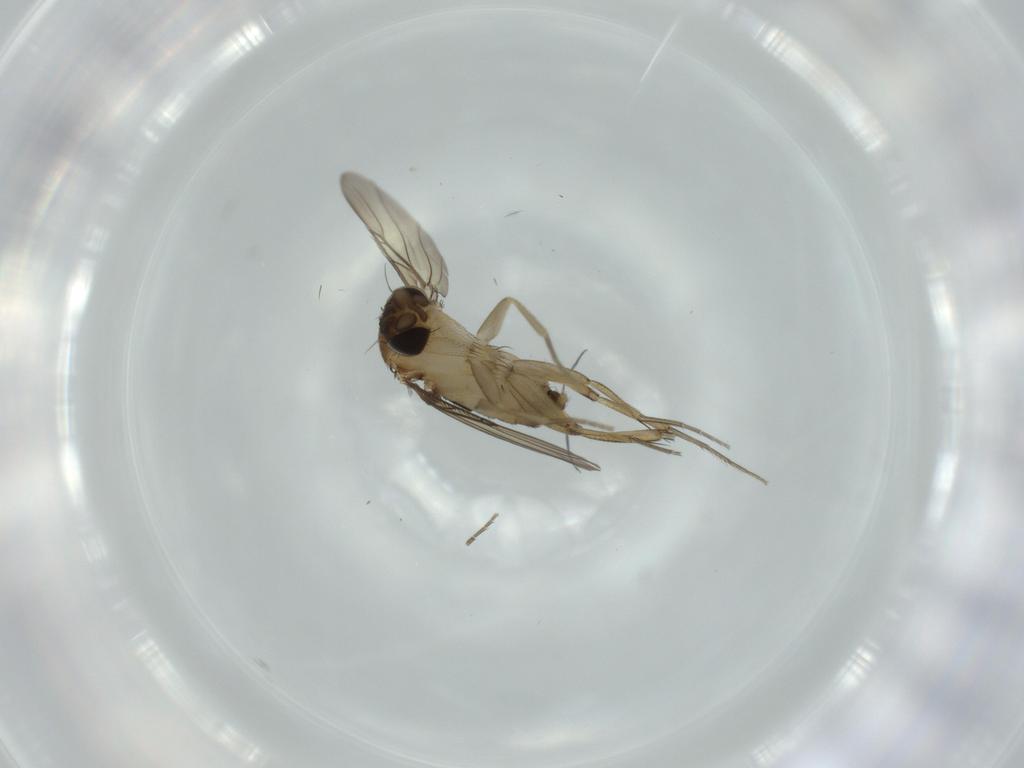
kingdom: Animalia
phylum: Arthropoda
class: Insecta
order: Diptera
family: Phoridae
